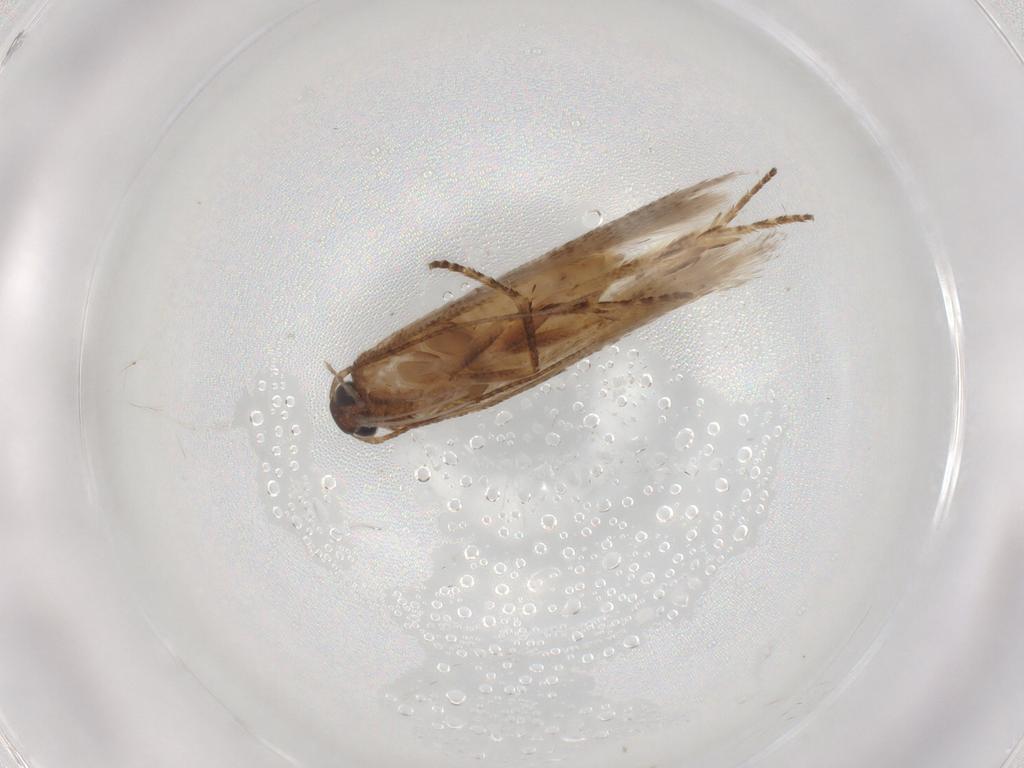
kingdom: Animalia
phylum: Arthropoda
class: Insecta
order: Lepidoptera
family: Gelechiidae
